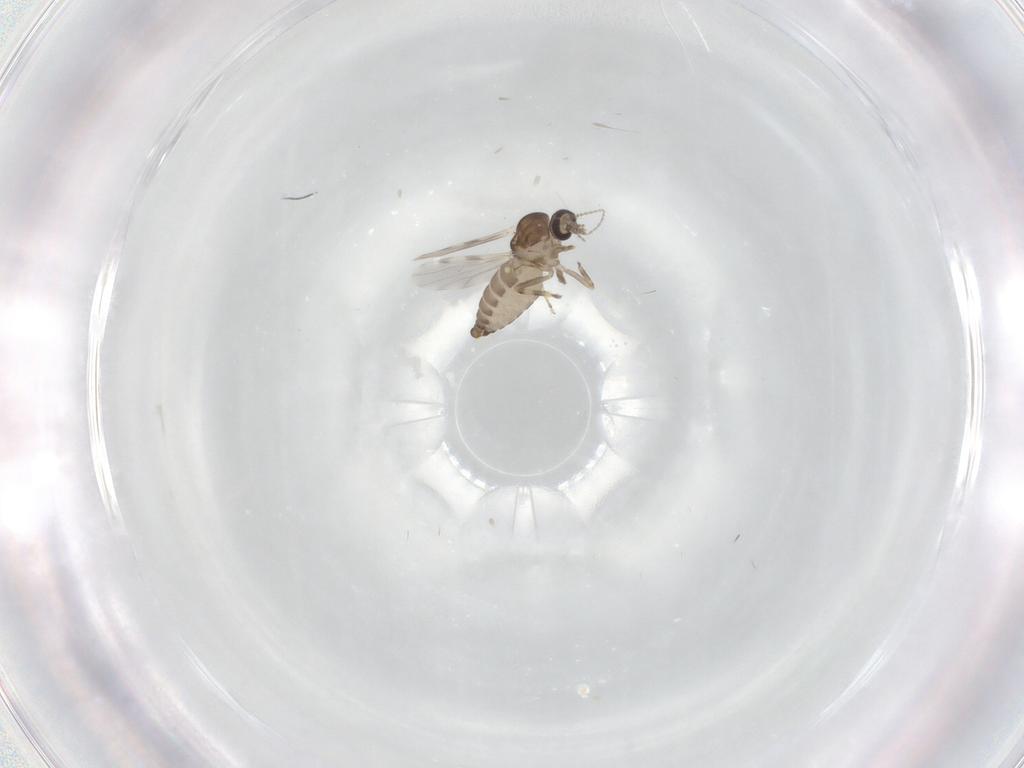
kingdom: Animalia
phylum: Arthropoda
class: Insecta
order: Diptera
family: Ceratopogonidae
